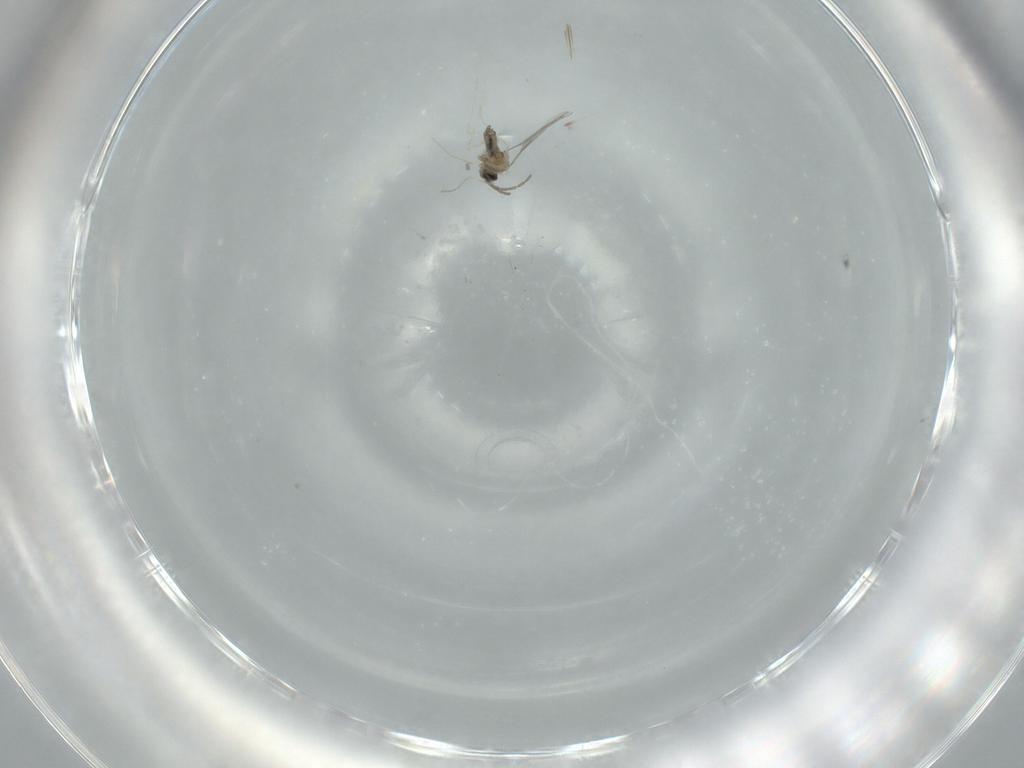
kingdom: Animalia
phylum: Arthropoda
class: Insecta
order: Diptera
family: Cecidomyiidae
